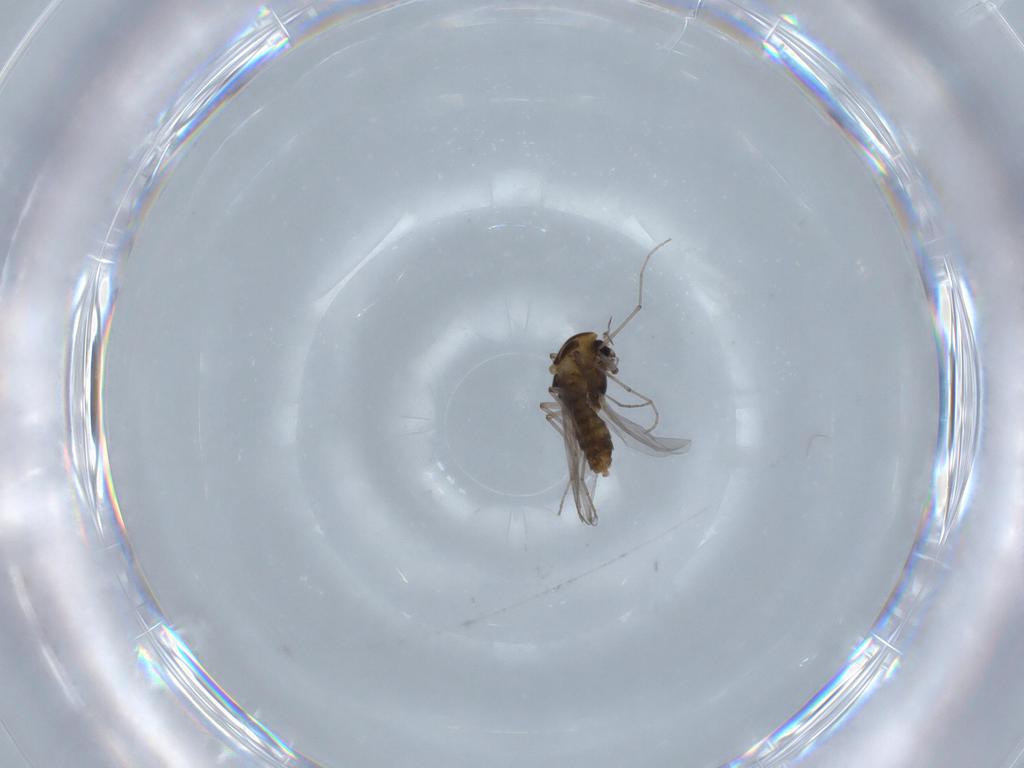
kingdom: Animalia
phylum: Arthropoda
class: Insecta
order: Diptera
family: Chironomidae
